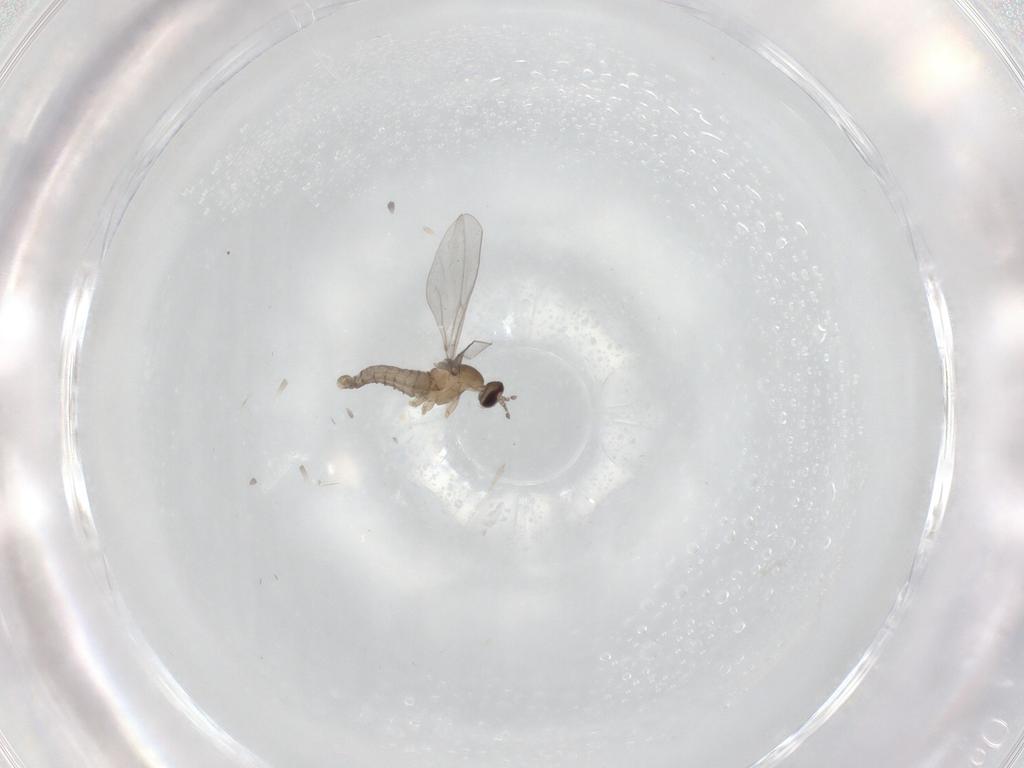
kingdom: Animalia
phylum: Arthropoda
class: Insecta
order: Diptera
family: Cecidomyiidae
